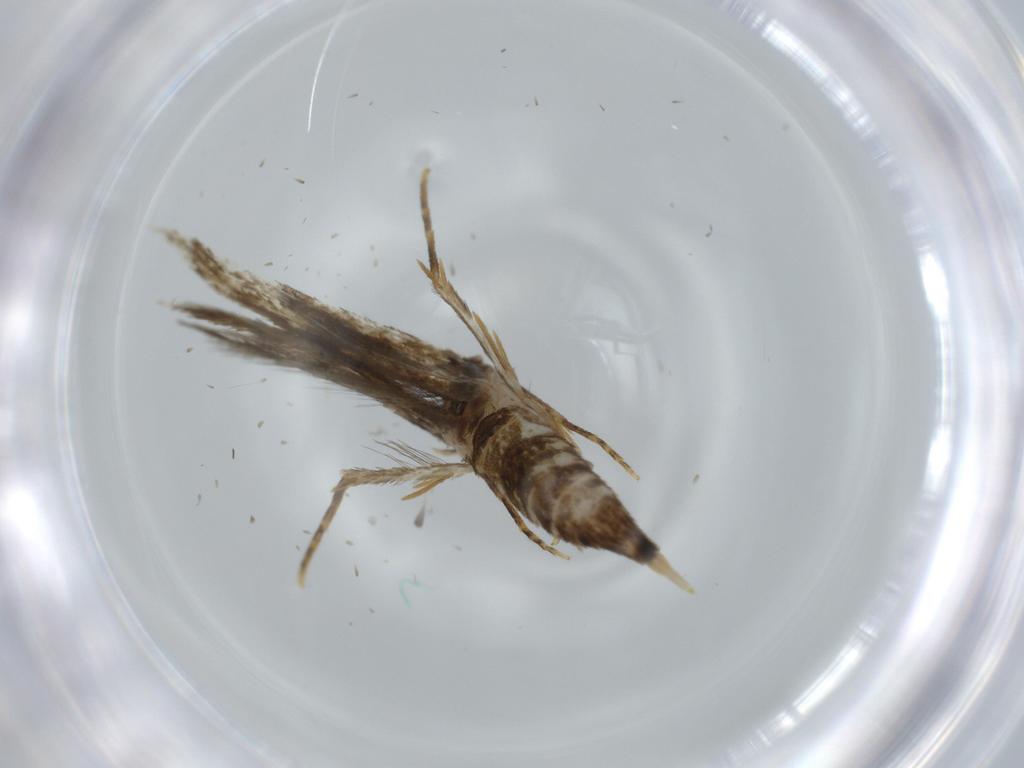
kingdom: Animalia
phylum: Arthropoda
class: Insecta
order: Lepidoptera
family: Tineidae
